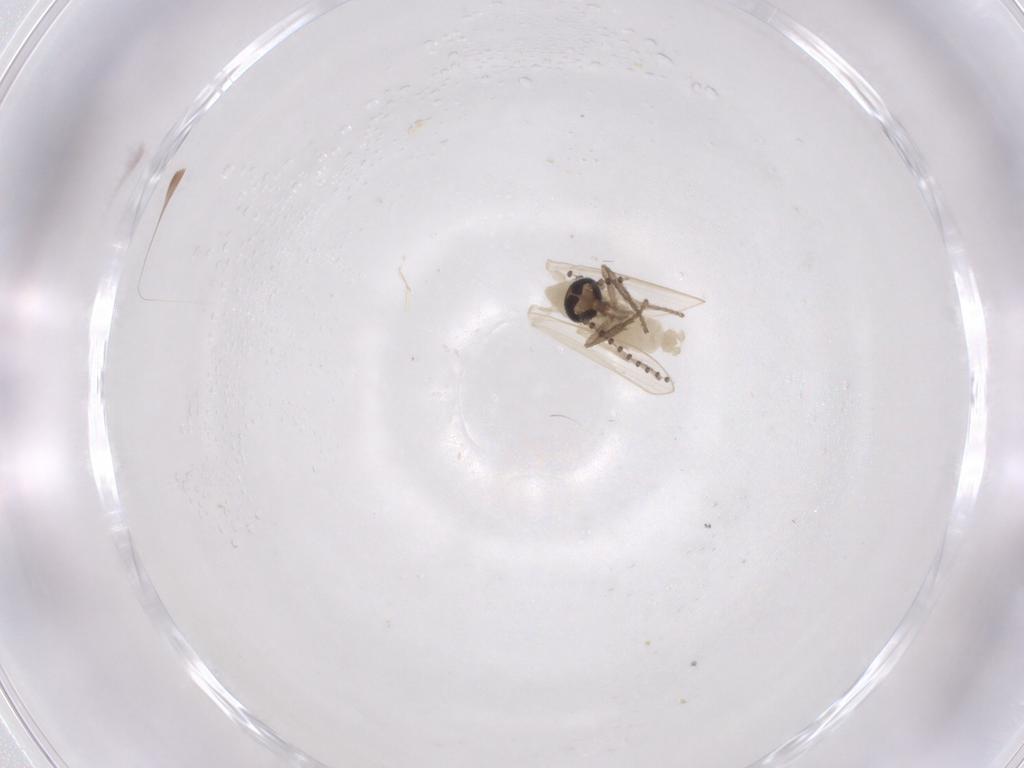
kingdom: Animalia
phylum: Arthropoda
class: Insecta
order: Diptera
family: Psychodidae
